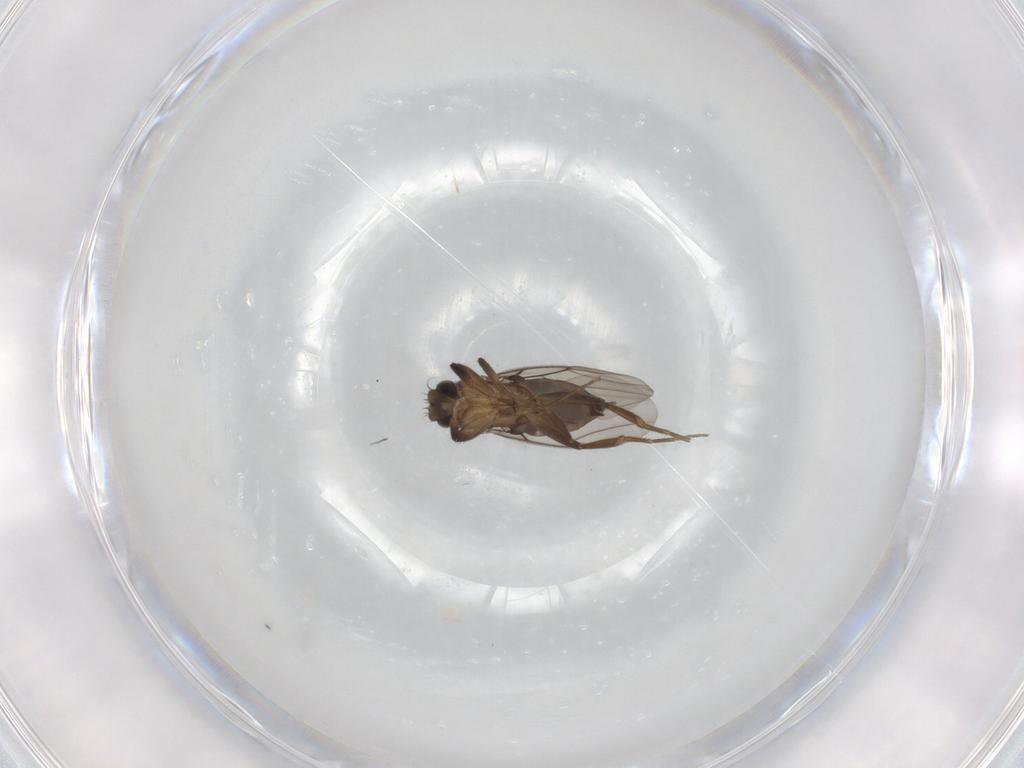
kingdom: Animalia
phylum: Arthropoda
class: Insecta
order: Diptera
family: Phoridae
